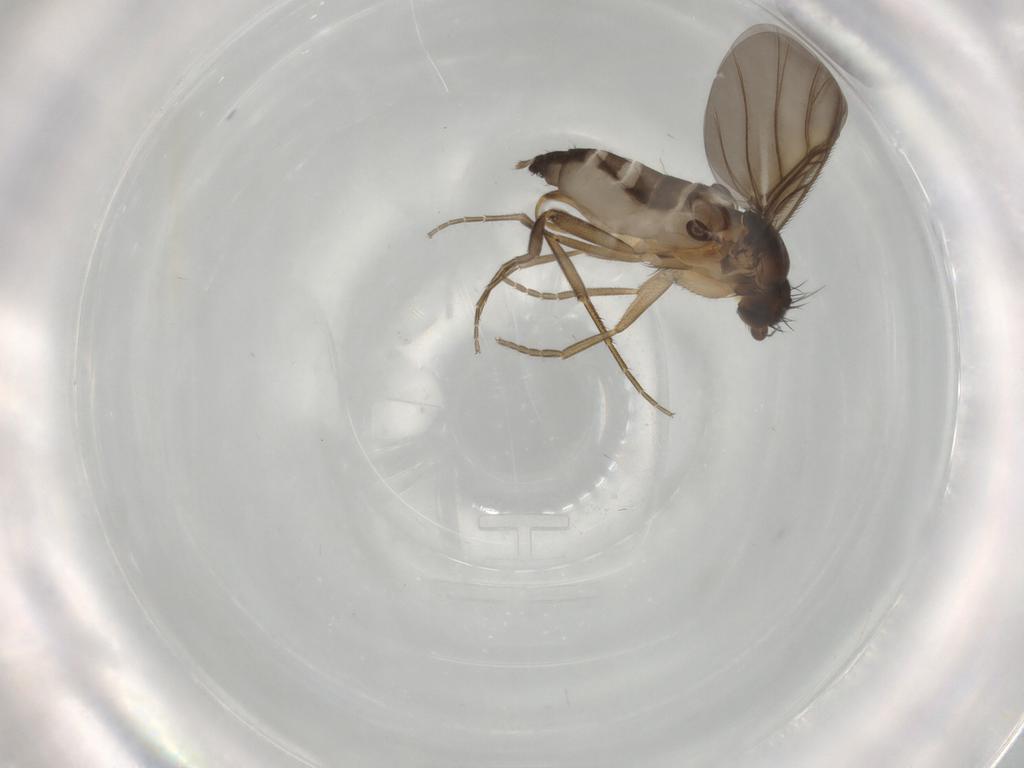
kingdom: Animalia
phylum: Arthropoda
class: Insecta
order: Diptera
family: Phoridae
